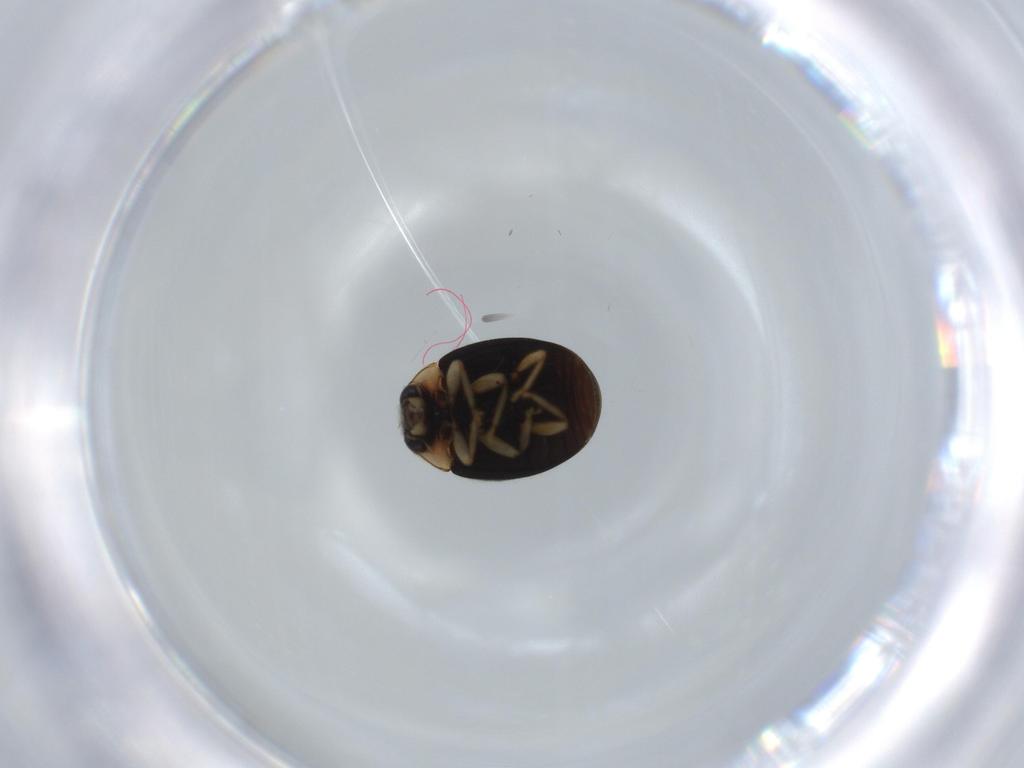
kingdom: Animalia
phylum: Arthropoda
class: Insecta
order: Coleoptera
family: Coccinellidae
